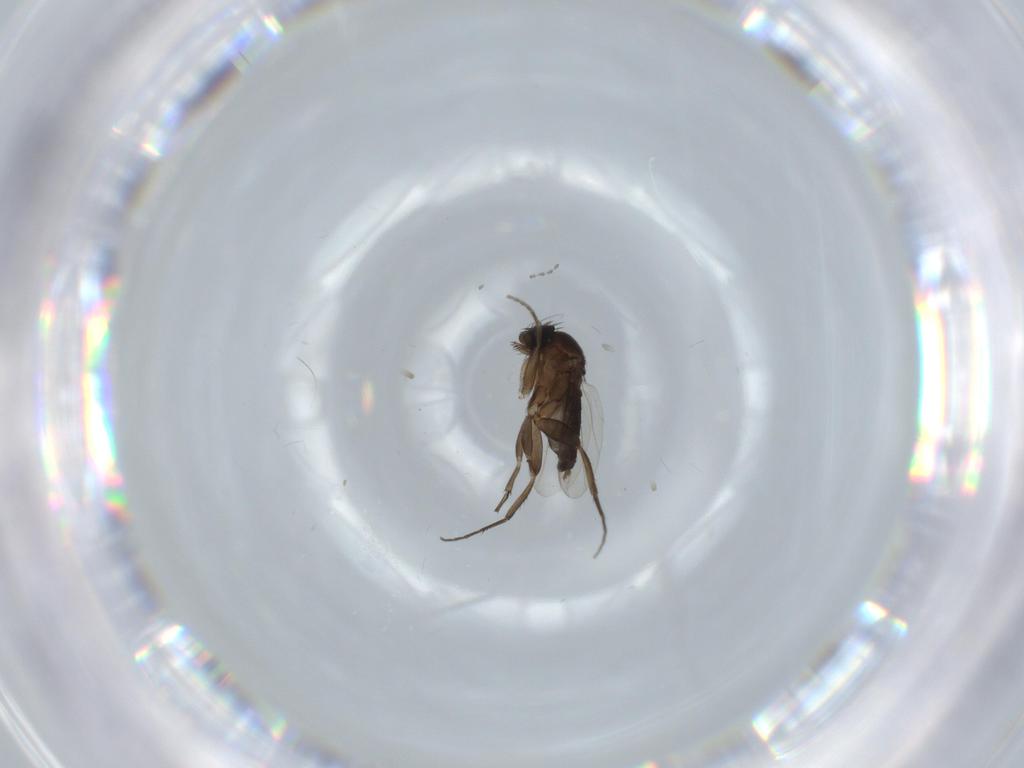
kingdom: Animalia
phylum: Arthropoda
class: Insecta
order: Diptera
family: Phoridae
